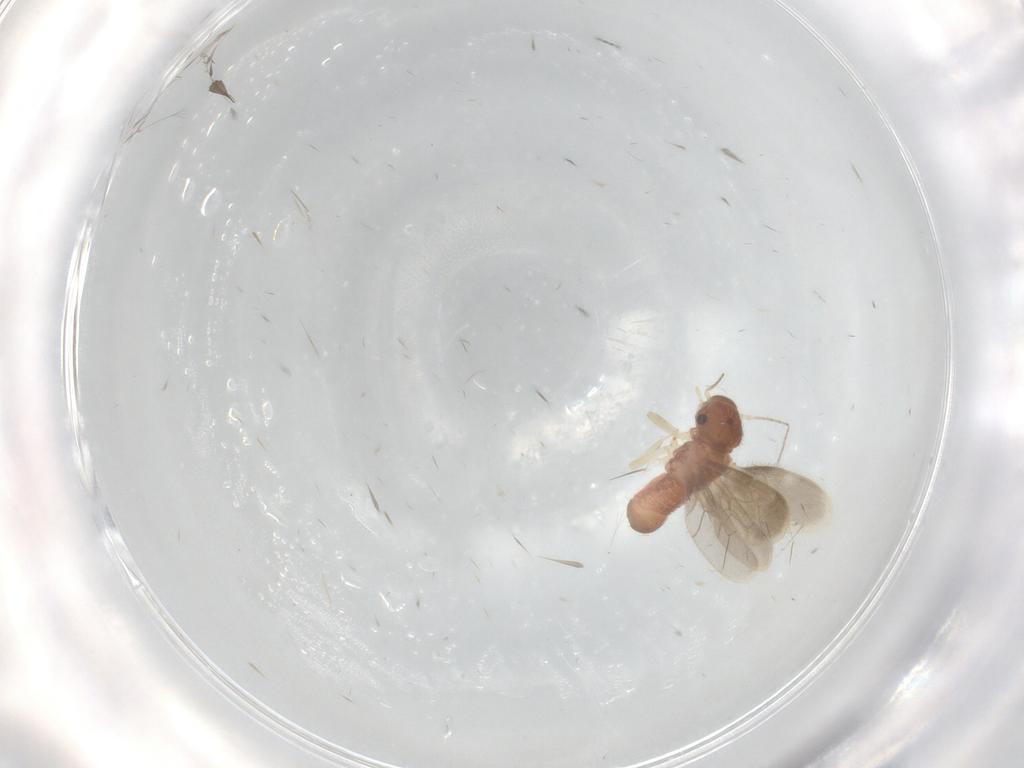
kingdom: Animalia
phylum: Arthropoda
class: Insecta
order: Psocodea
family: Archipsocidae
